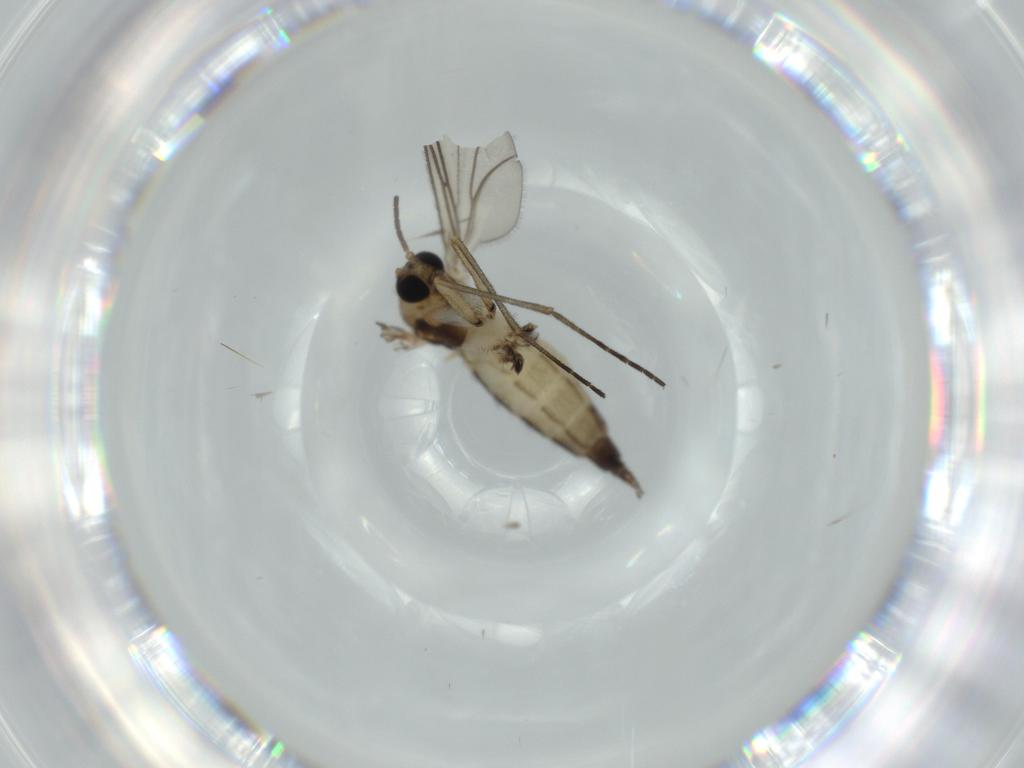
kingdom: Animalia
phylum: Arthropoda
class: Insecta
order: Diptera
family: Sciaridae
